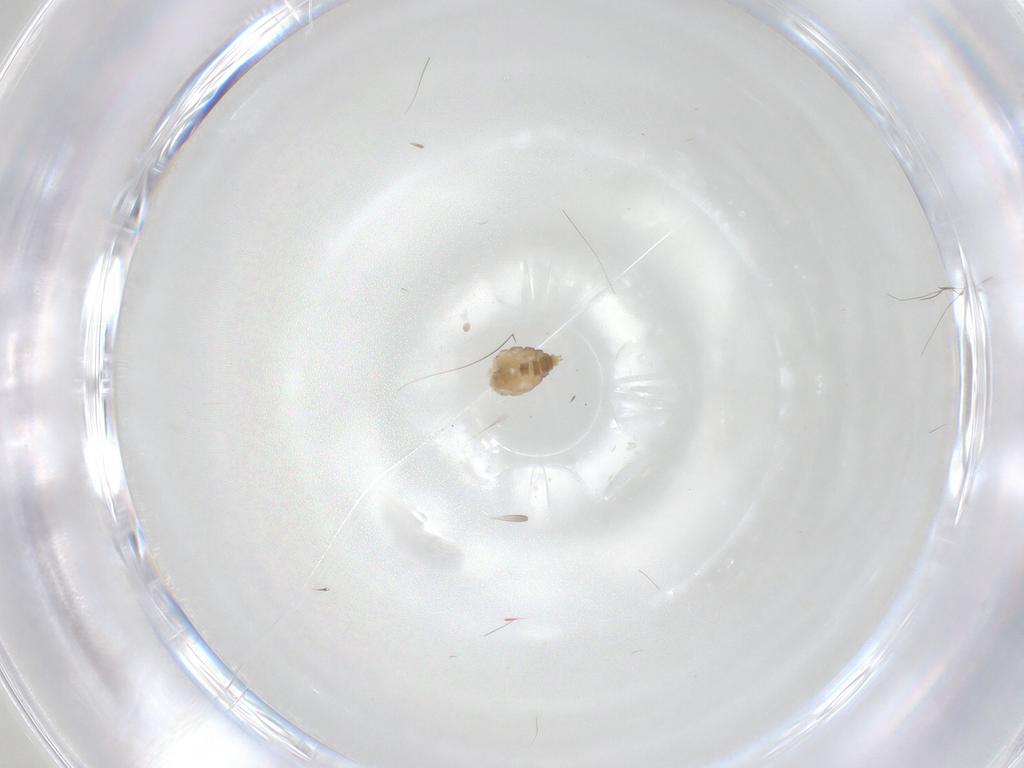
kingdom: Animalia
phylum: Arthropoda
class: Insecta
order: Diptera
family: Cecidomyiidae
